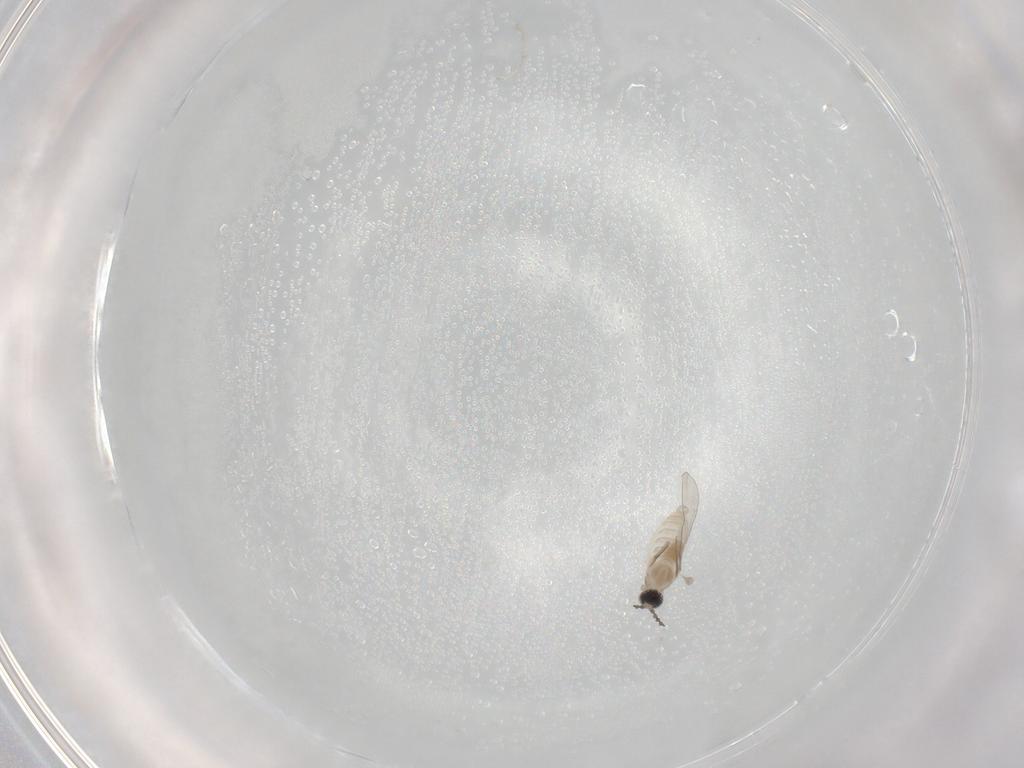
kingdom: Animalia
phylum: Arthropoda
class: Insecta
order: Diptera
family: Cecidomyiidae
